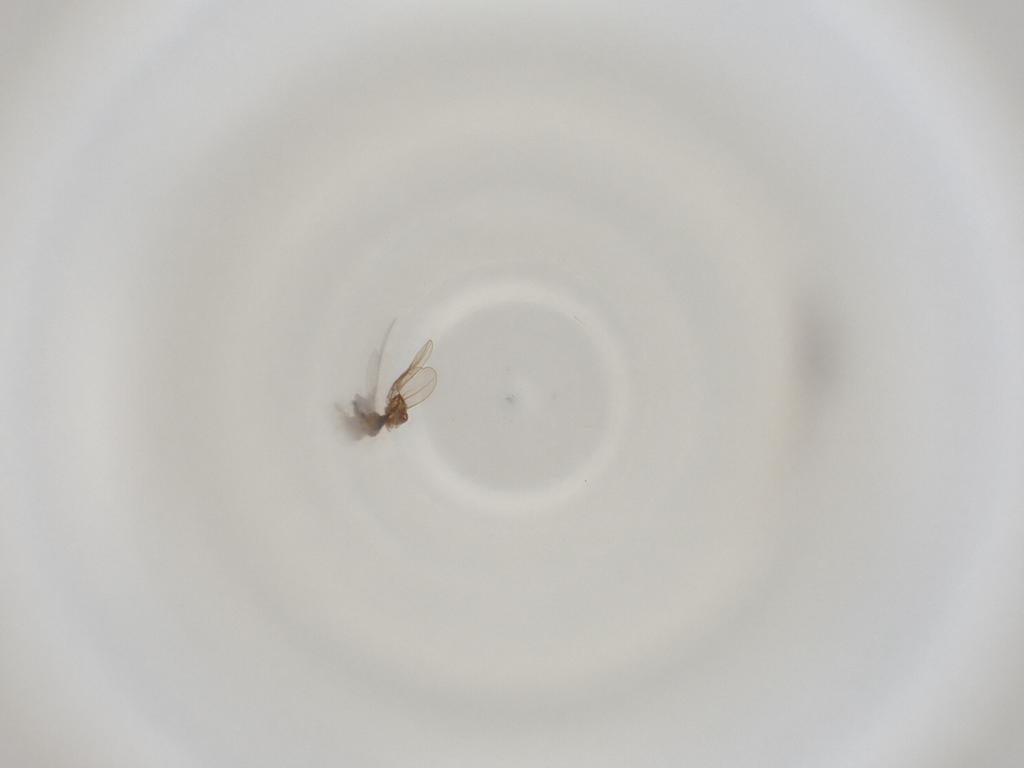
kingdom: Animalia
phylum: Arthropoda
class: Insecta
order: Diptera
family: Cecidomyiidae
